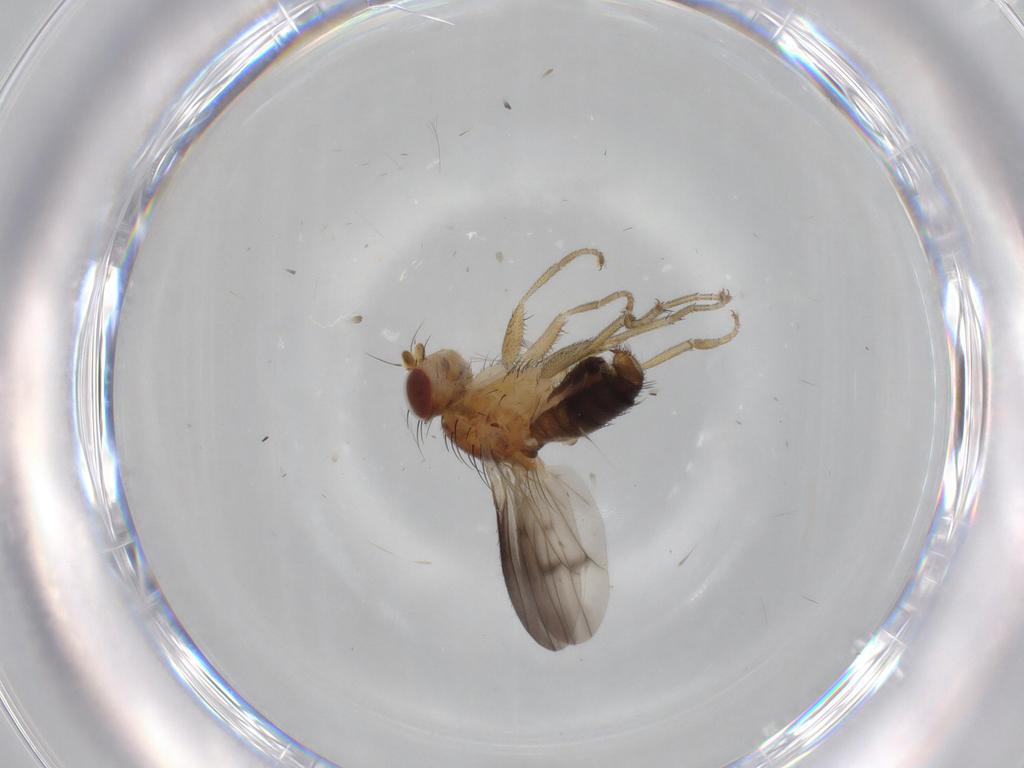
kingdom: Animalia
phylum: Arthropoda
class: Insecta
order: Diptera
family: Heleomyzidae
